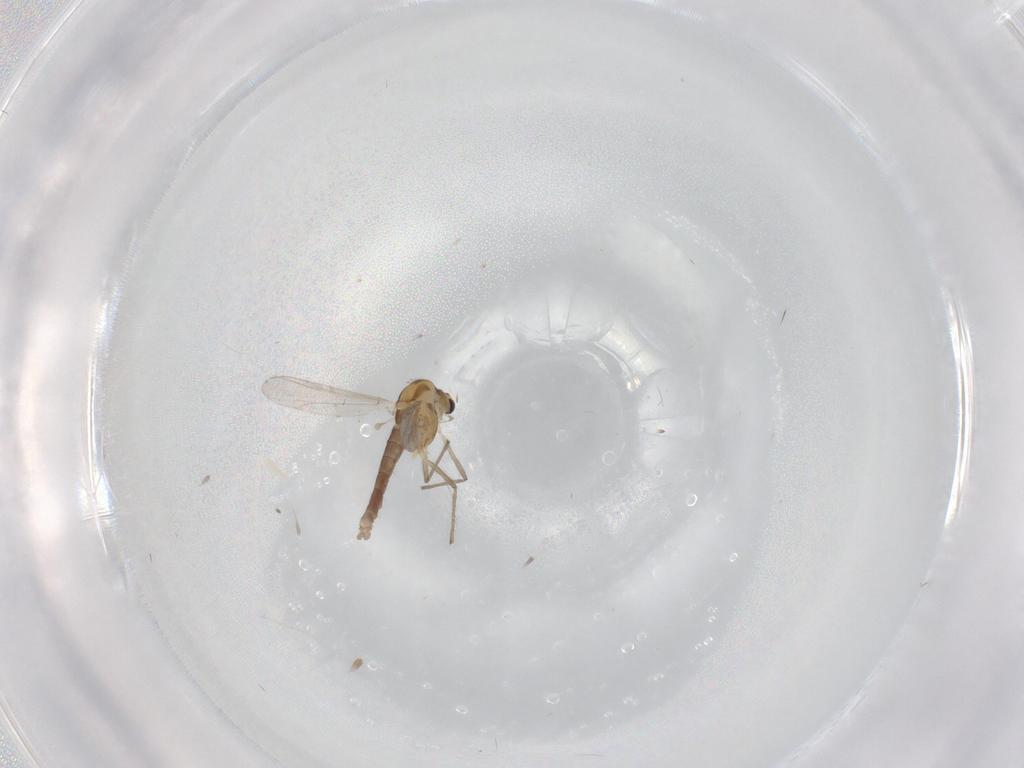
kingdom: Animalia
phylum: Arthropoda
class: Insecta
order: Diptera
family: Chironomidae
